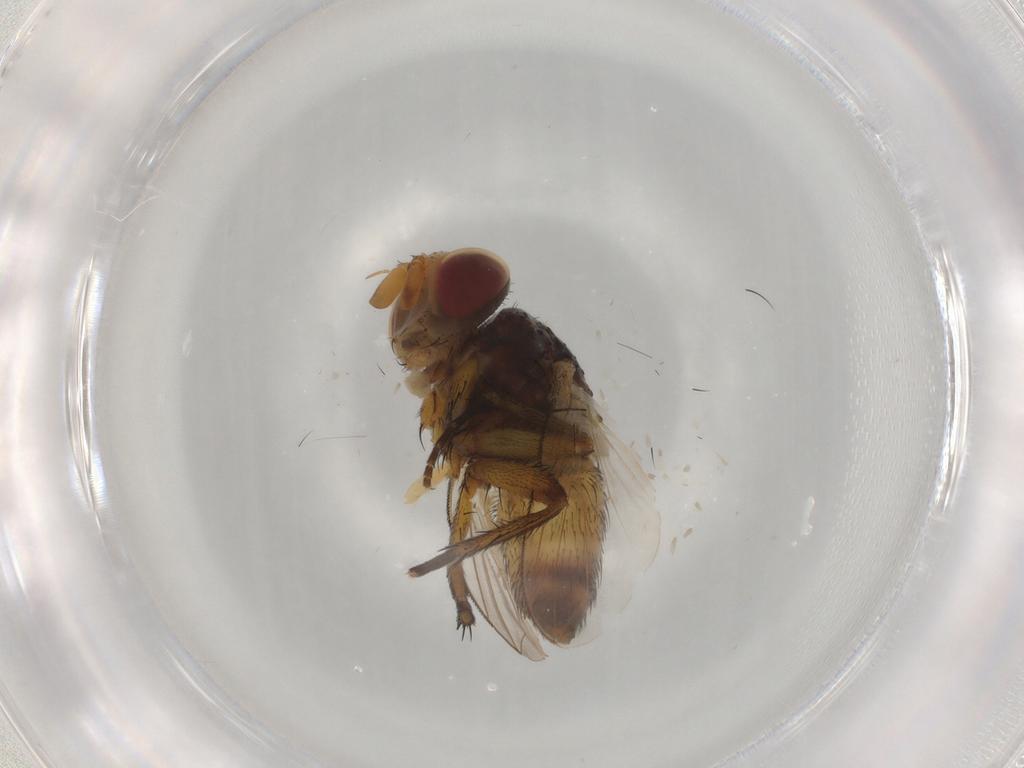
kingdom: Animalia
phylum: Arthropoda
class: Insecta
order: Diptera
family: Tachinidae
